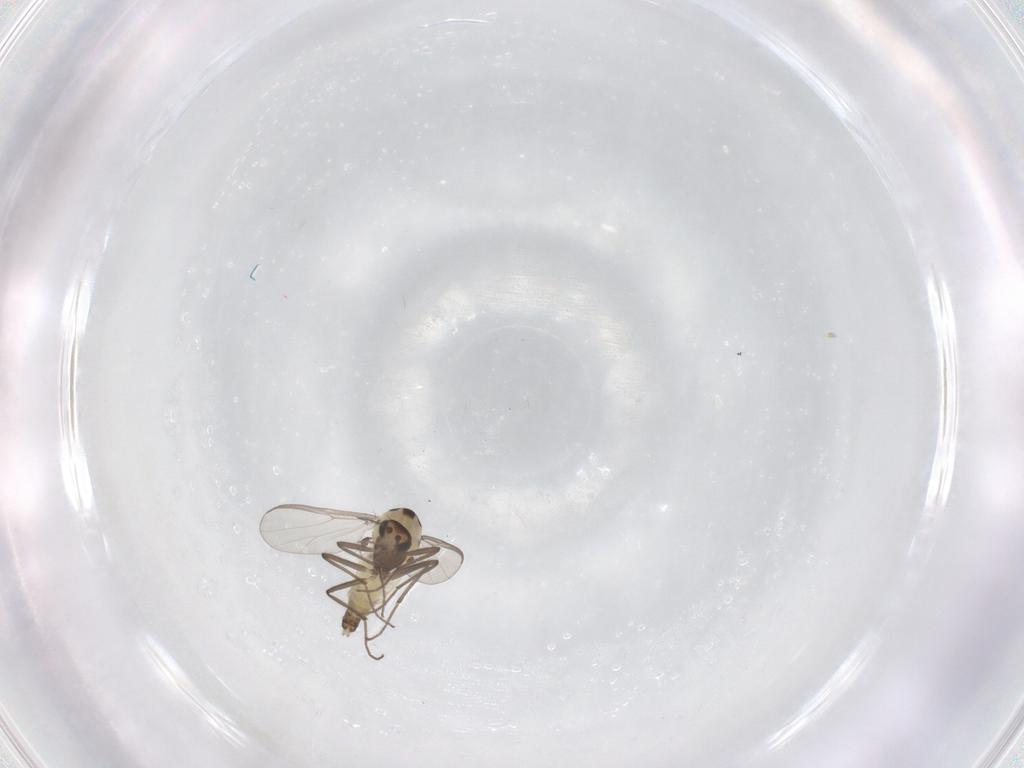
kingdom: Animalia
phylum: Arthropoda
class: Insecta
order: Diptera
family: Chironomidae
